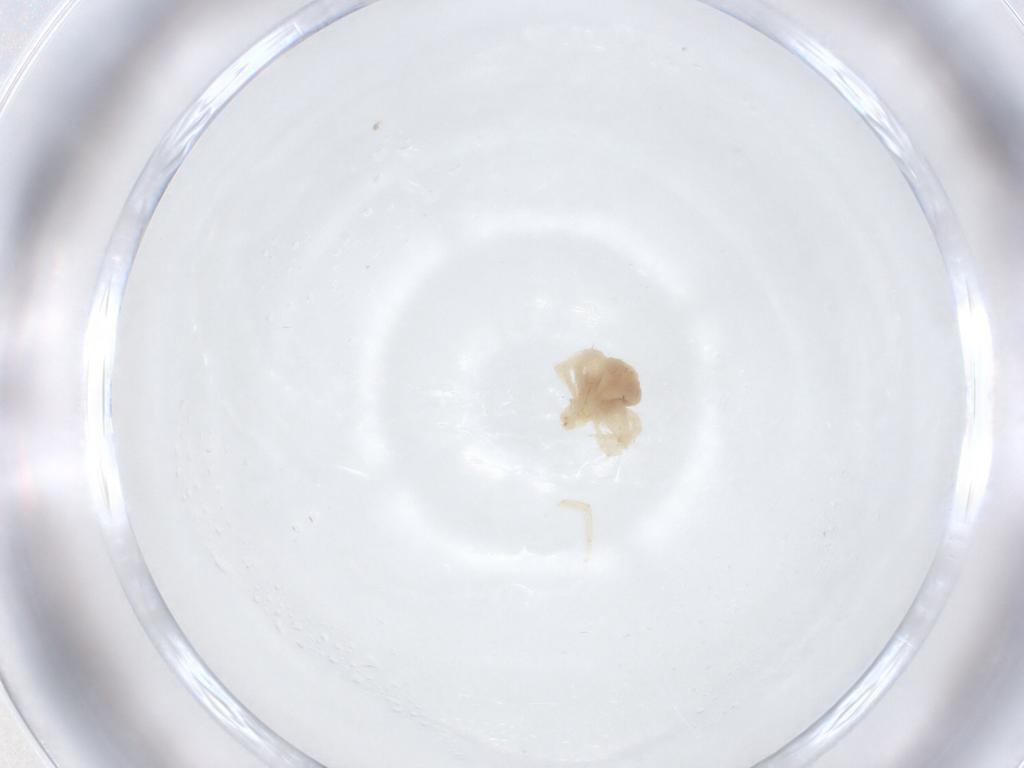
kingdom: Animalia
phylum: Arthropoda
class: Arachnida
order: Trombidiformes
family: Anystidae
